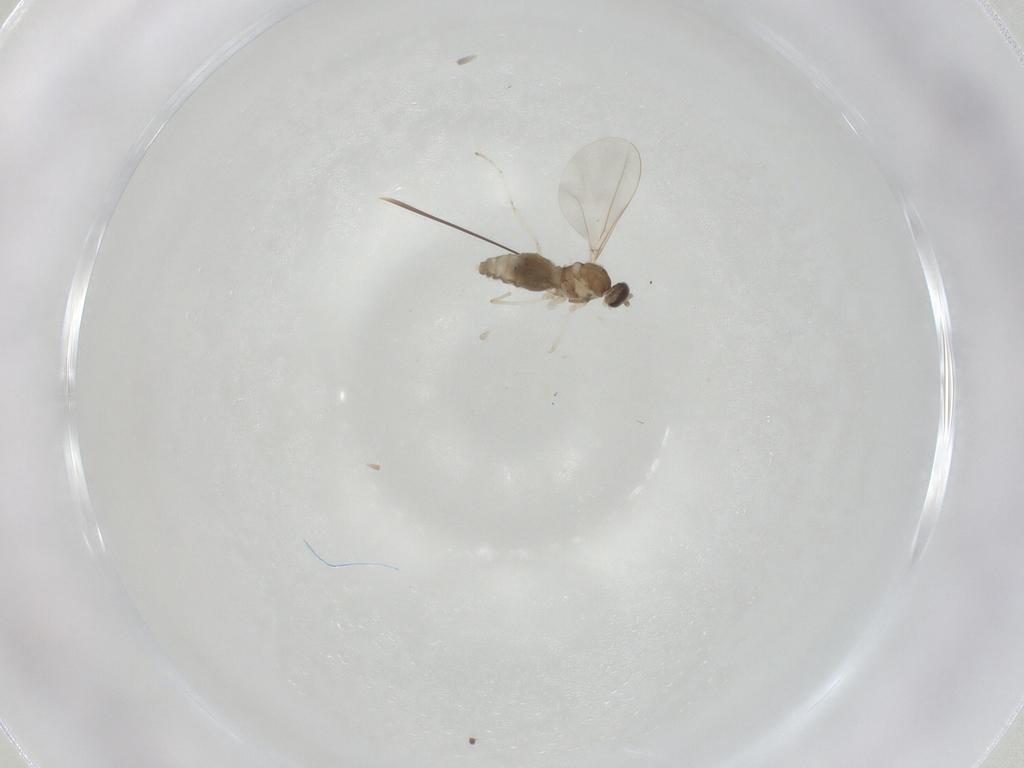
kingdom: Animalia
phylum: Arthropoda
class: Insecta
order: Diptera
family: Cecidomyiidae
